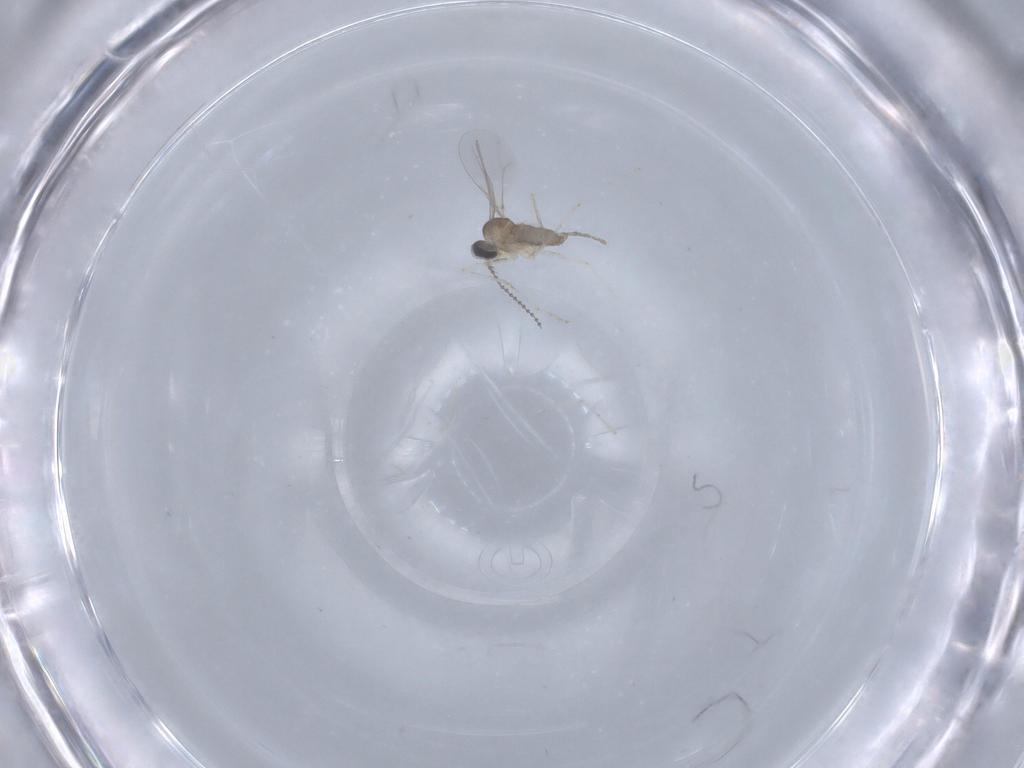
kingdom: Animalia
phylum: Arthropoda
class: Insecta
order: Diptera
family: Cecidomyiidae
